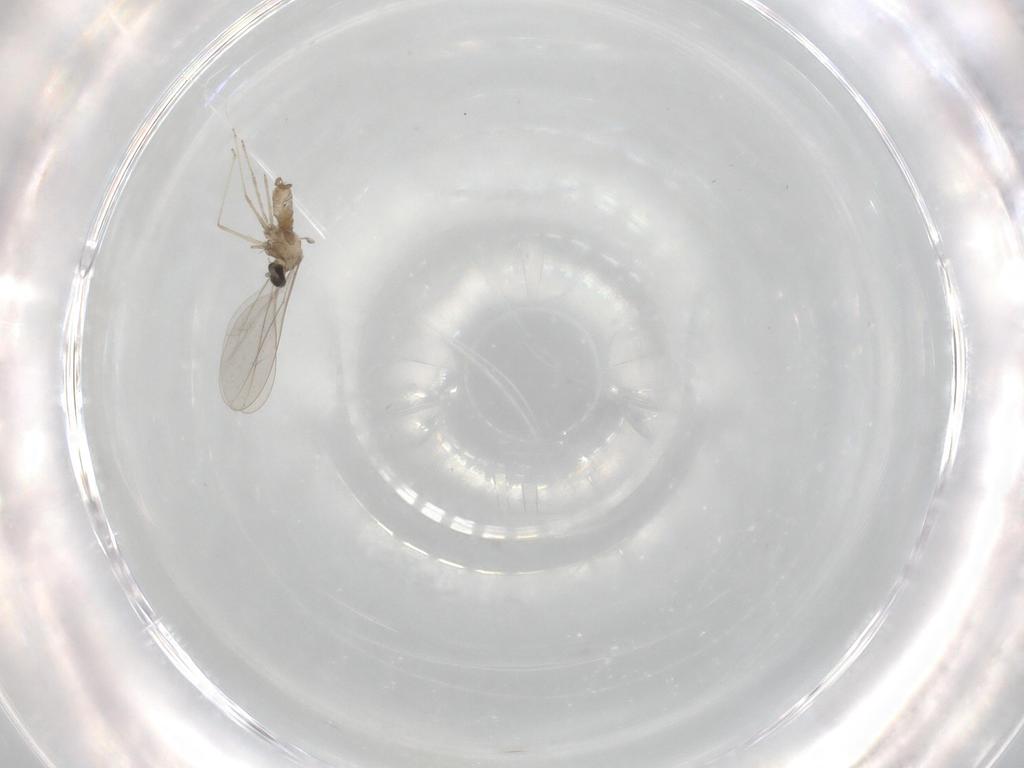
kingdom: Animalia
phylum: Arthropoda
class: Insecta
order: Diptera
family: Cecidomyiidae
